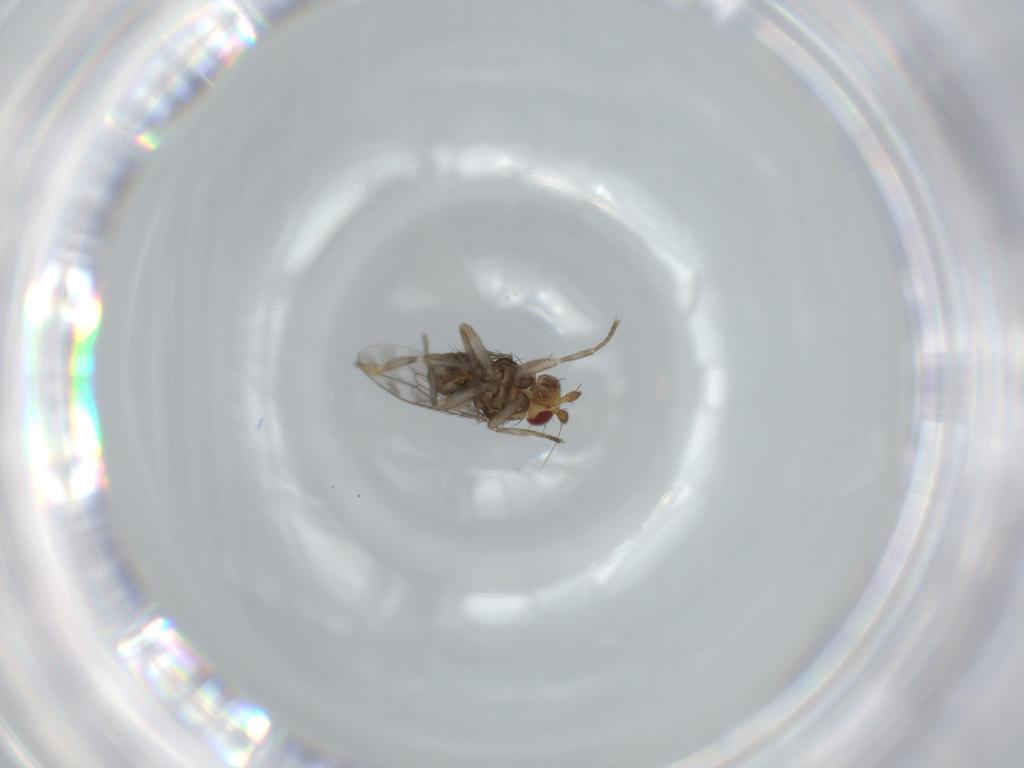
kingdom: Animalia
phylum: Arthropoda
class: Insecta
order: Diptera
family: Sphaeroceridae
